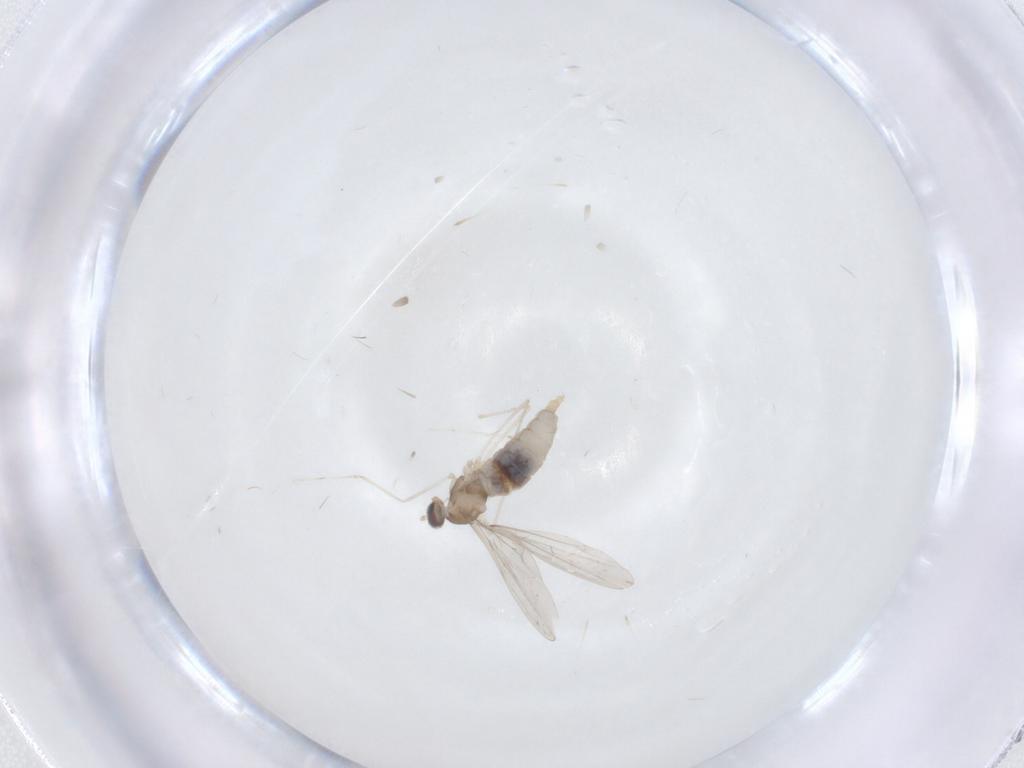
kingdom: Animalia
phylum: Arthropoda
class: Insecta
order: Diptera
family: Cecidomyiidae
